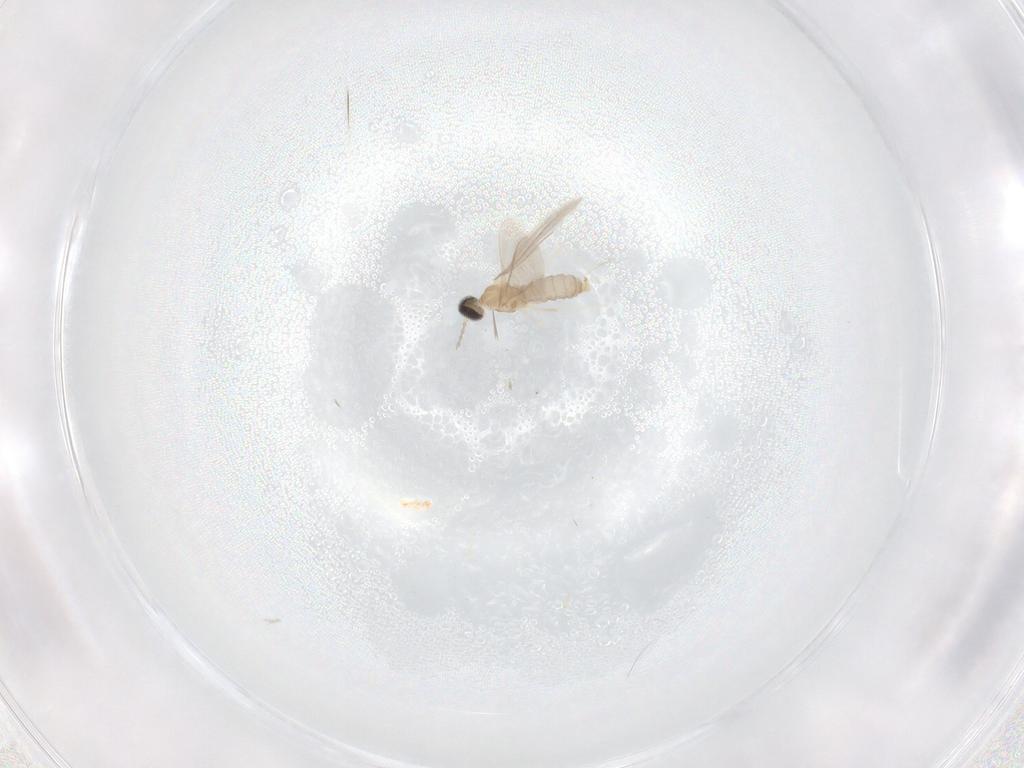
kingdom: Animalia
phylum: Arthropoda
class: Insecta
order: Diptera
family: Cecidomyiidae
